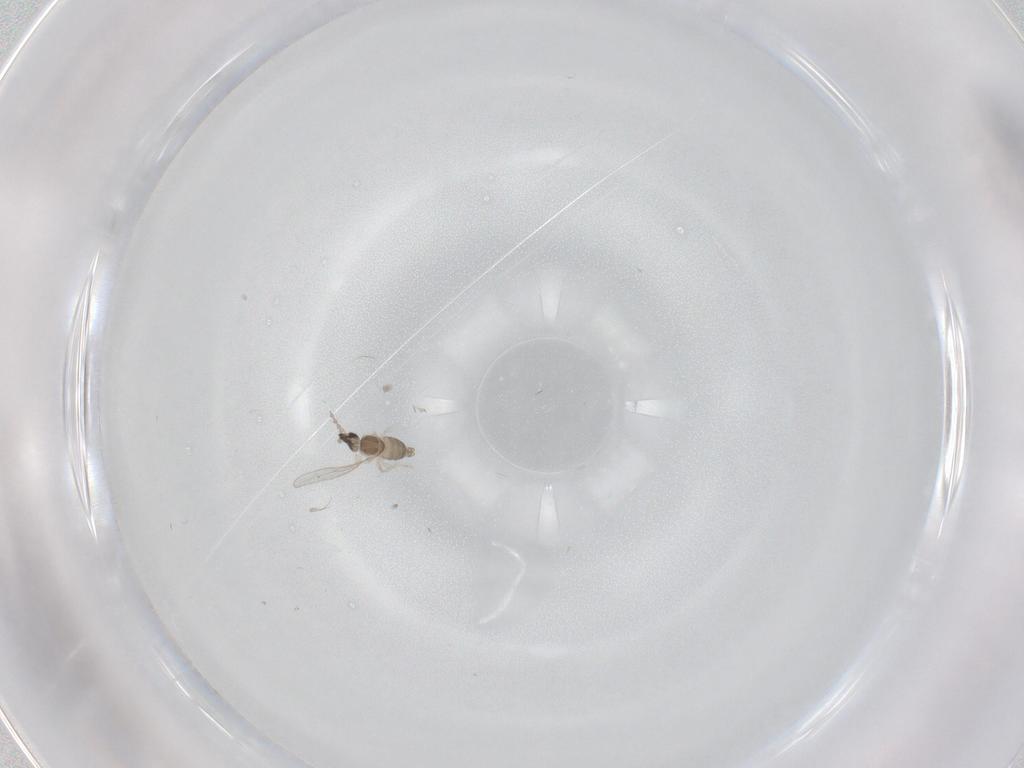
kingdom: Animalia
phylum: Arthropoda
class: Insecta
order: Diptera
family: Cecidomyiidae
